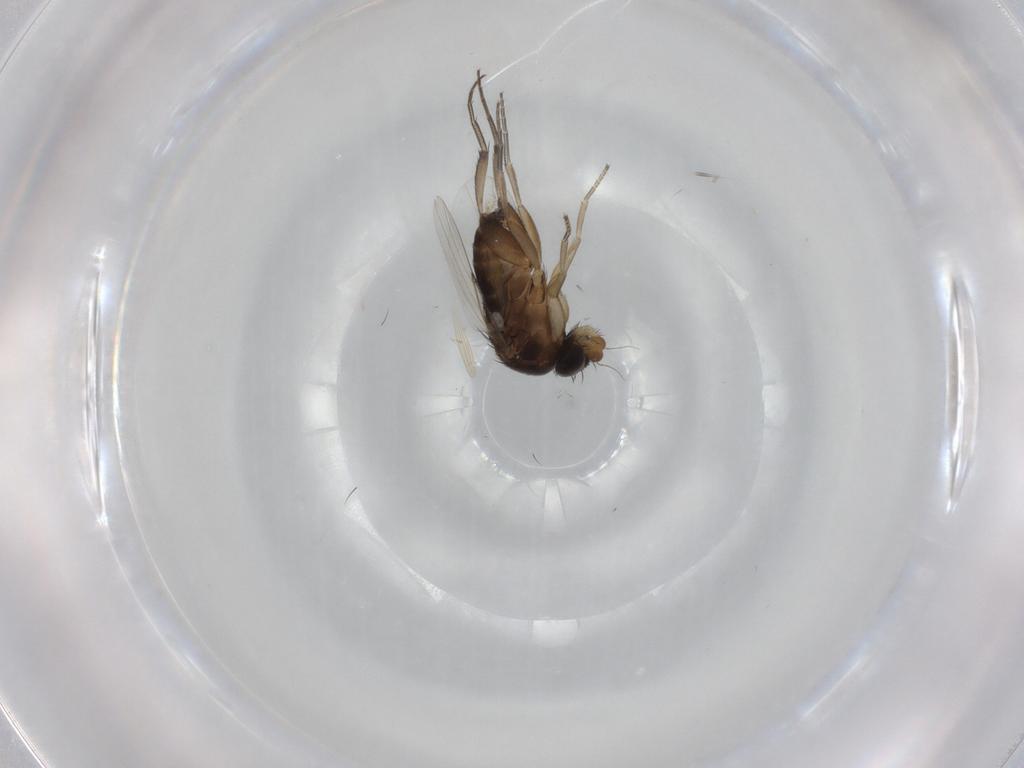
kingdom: Animalia
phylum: Arthropoda
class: Insecta
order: Diptera
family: Phoridae
